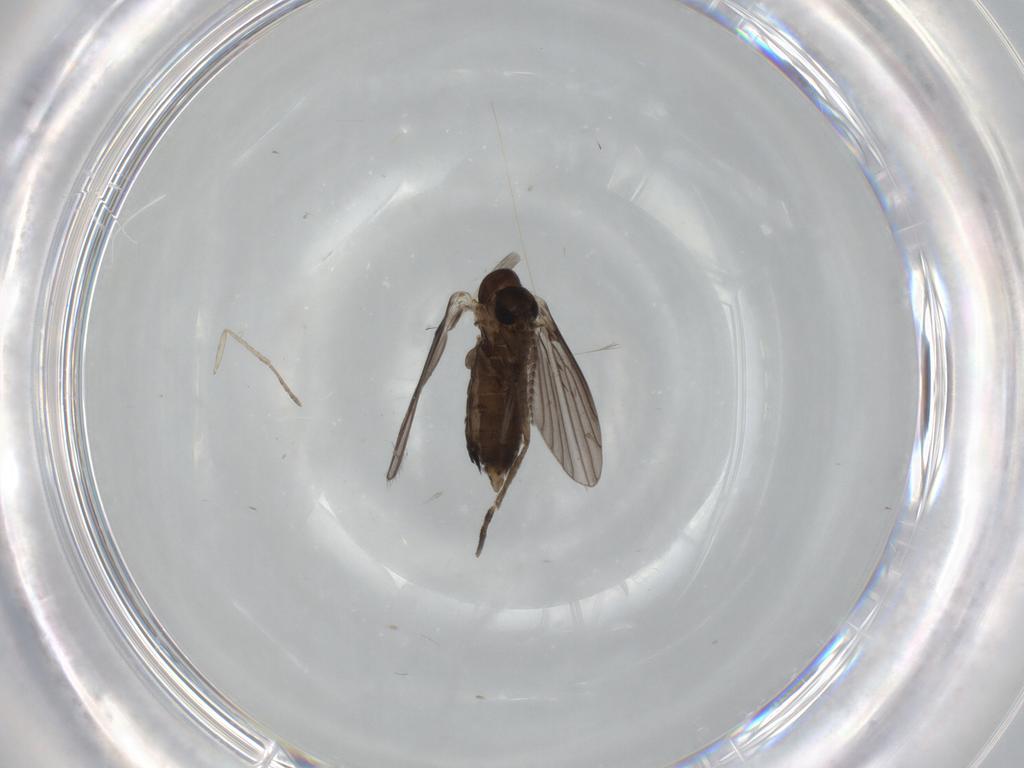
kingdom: Animalia
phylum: Arthropoda
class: Insecta
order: Diptera
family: Psychodidae
